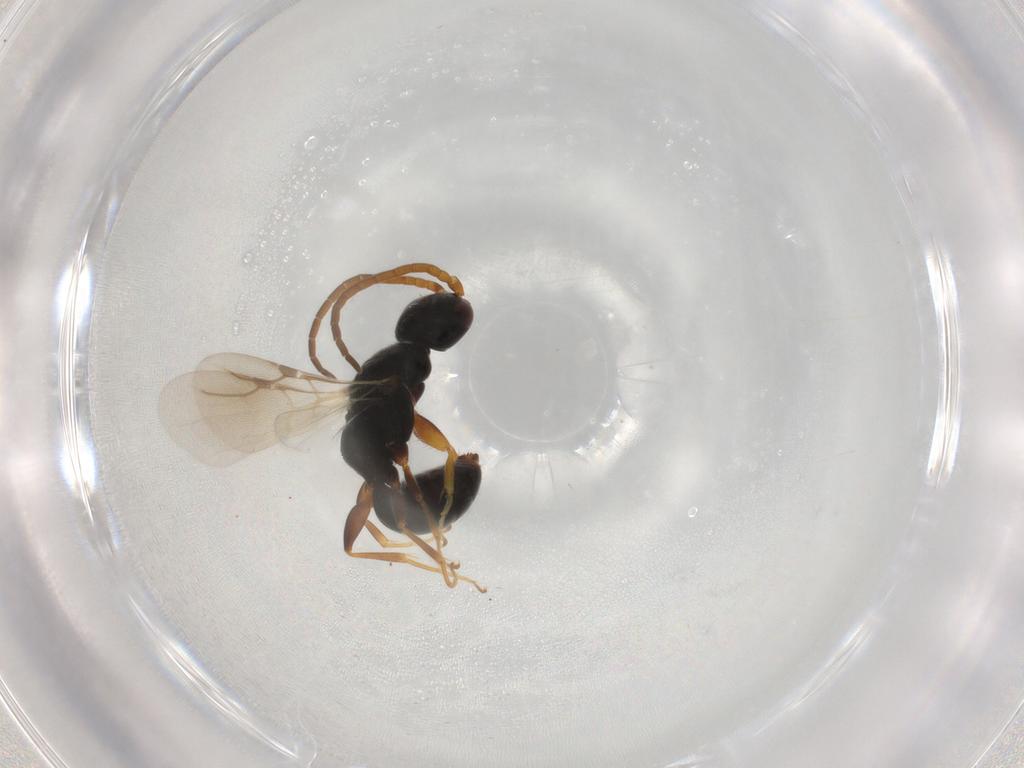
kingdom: Animalia
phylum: Arthropoda
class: Insecta
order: Hymenoptera
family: Bethylidae
